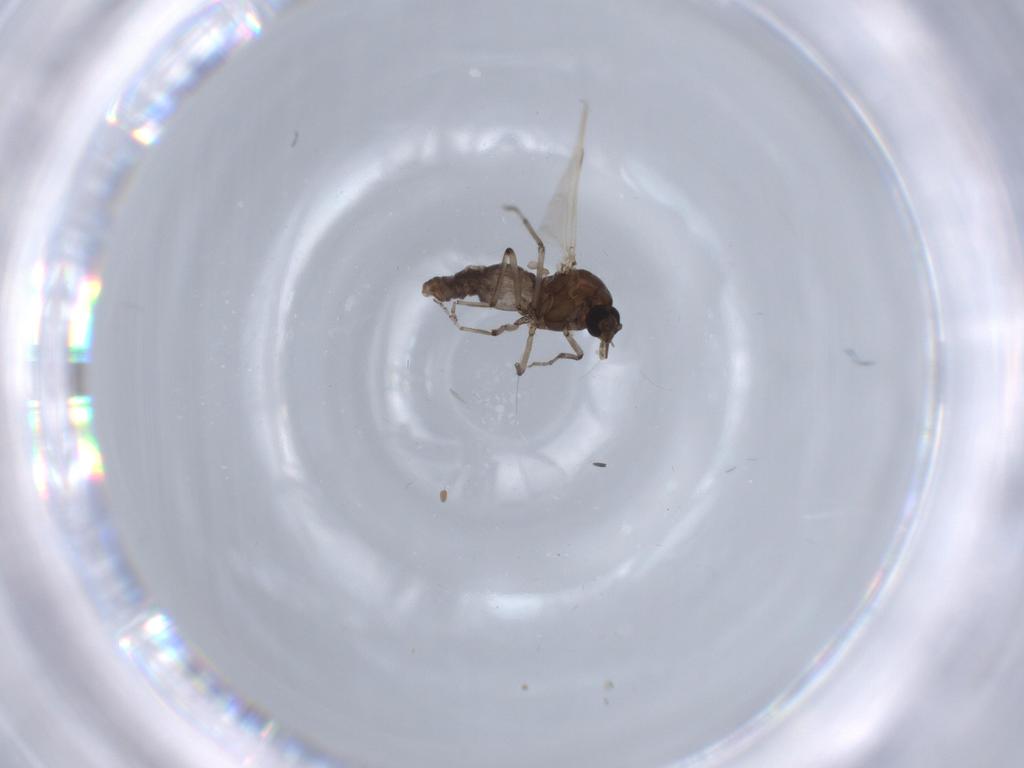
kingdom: Animalia
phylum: Arthropoda
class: Insecta
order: Diptera
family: Ceratopogonidae
